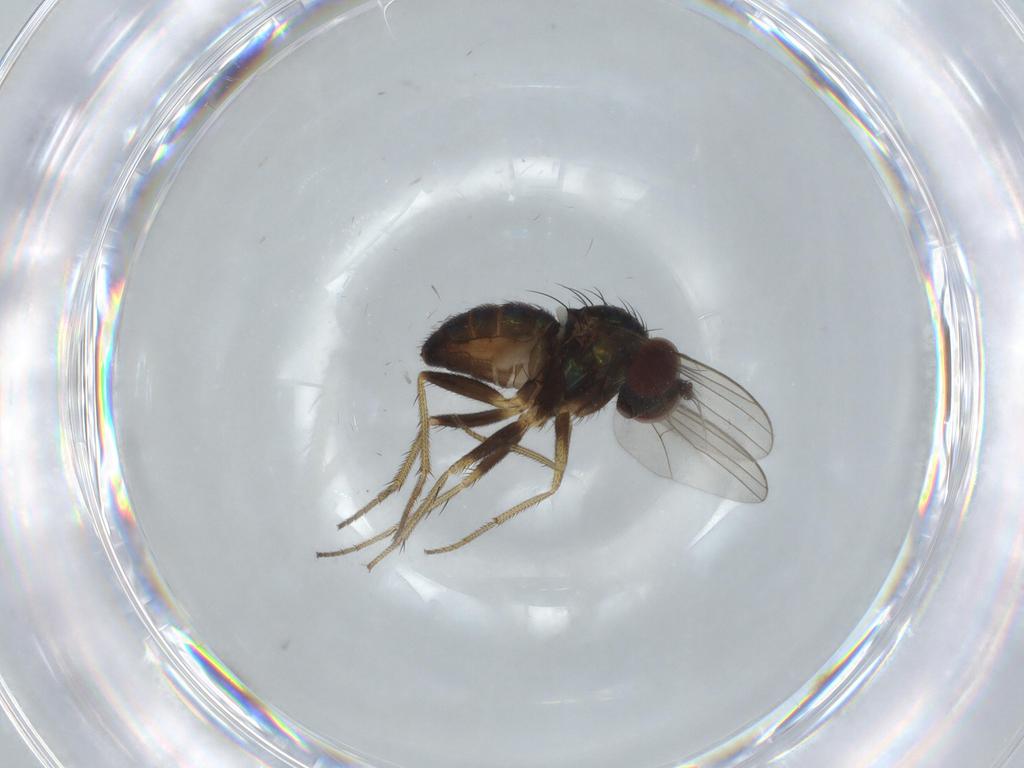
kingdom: Animalia
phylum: Arthropoda
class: Insecta
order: Diptera
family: Dolichopodidae
